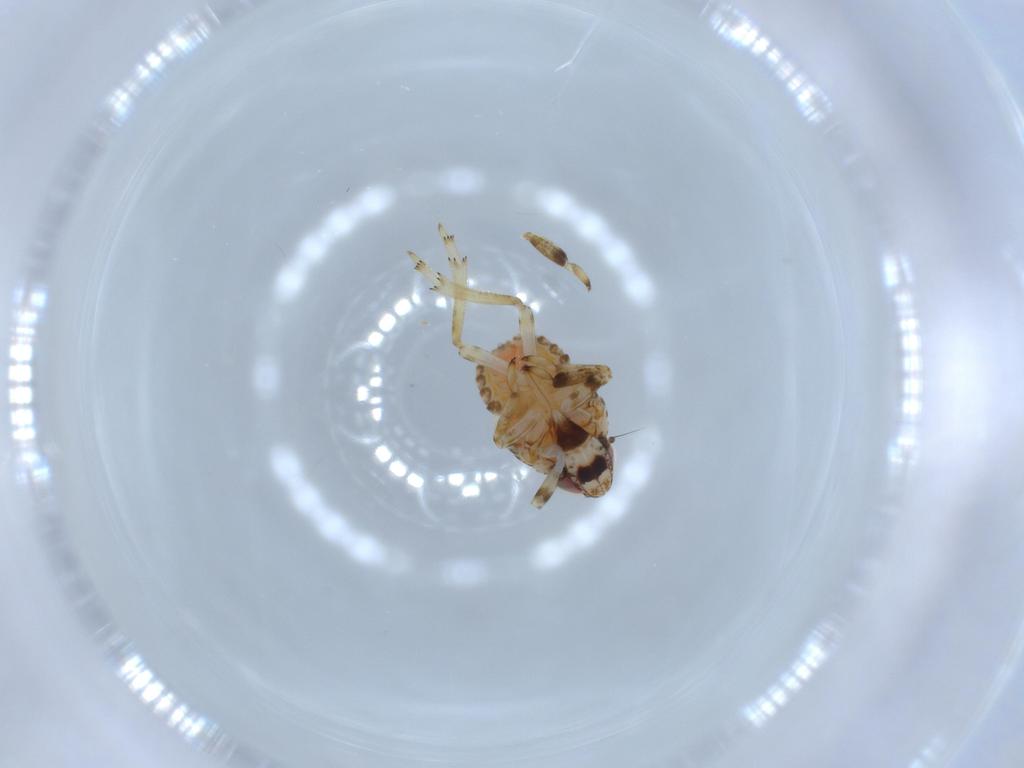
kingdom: Animalia
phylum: Arthropoda
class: Insecta
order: Hemiptera
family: Issidae
